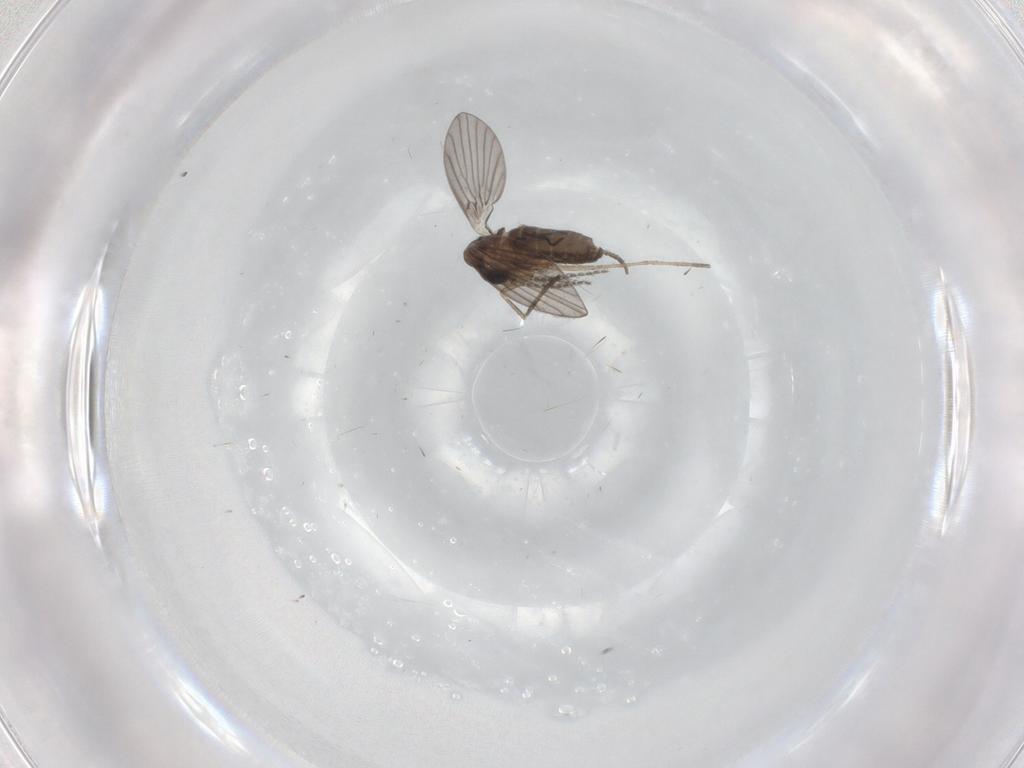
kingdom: Animalia
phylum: Arthropoda
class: Insecta
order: Diptera
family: Psychodidae
